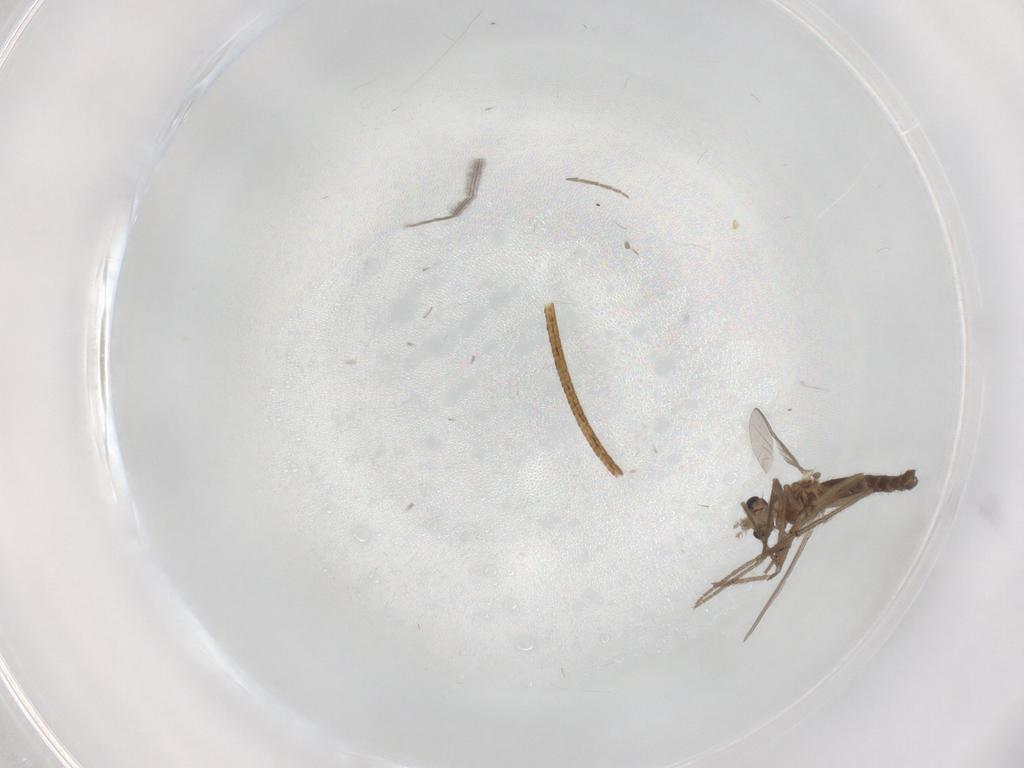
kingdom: Animalia
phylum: Arthropoda
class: Insecta
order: Diptera
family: Chironomidae
